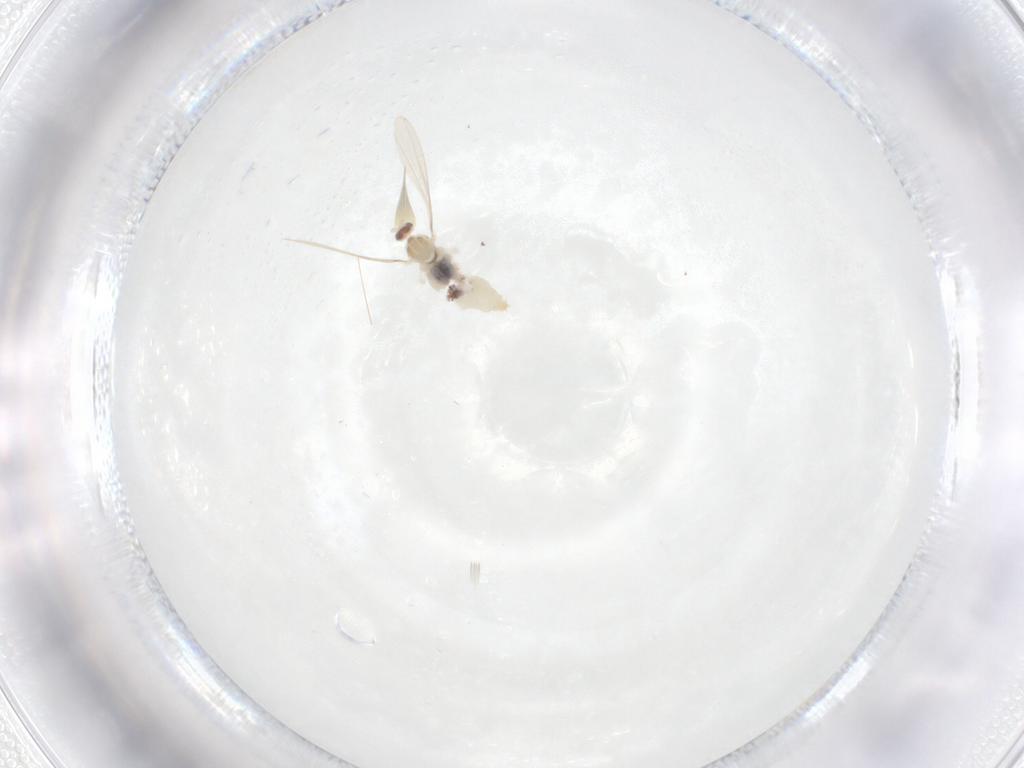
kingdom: Animalia
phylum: Arthropoda
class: Insecta
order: Diptera
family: Cecidomyiidae
